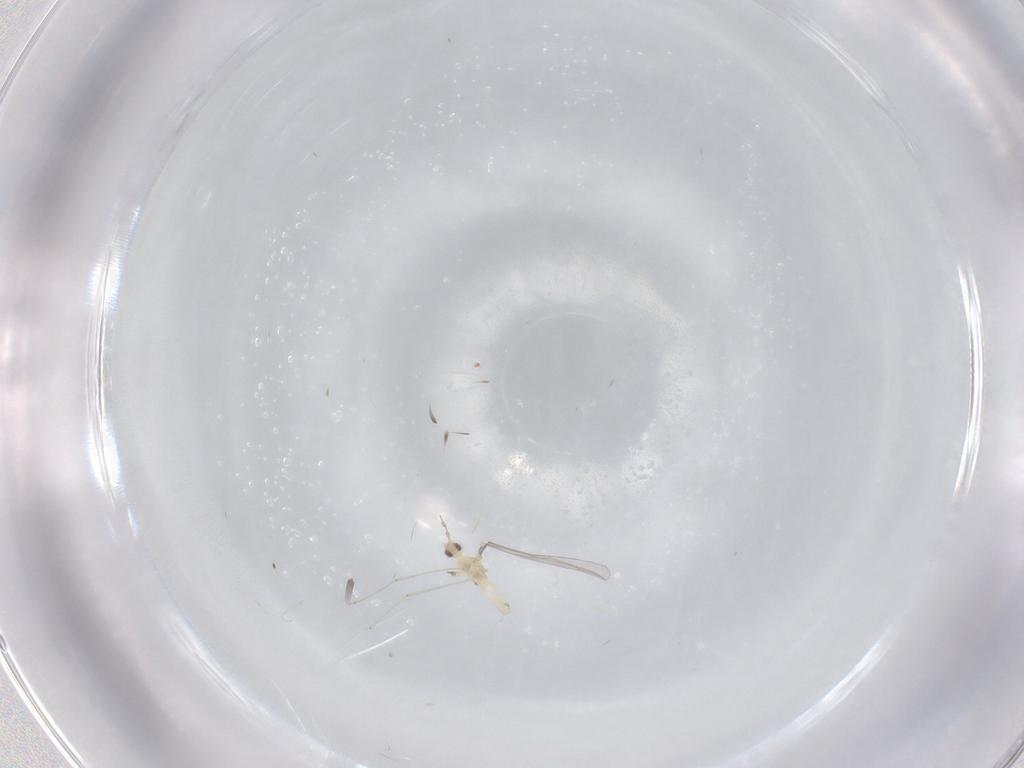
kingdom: Animalia
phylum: Arthropoda
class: Insecta
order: Diptera
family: Cecidomyiidae
